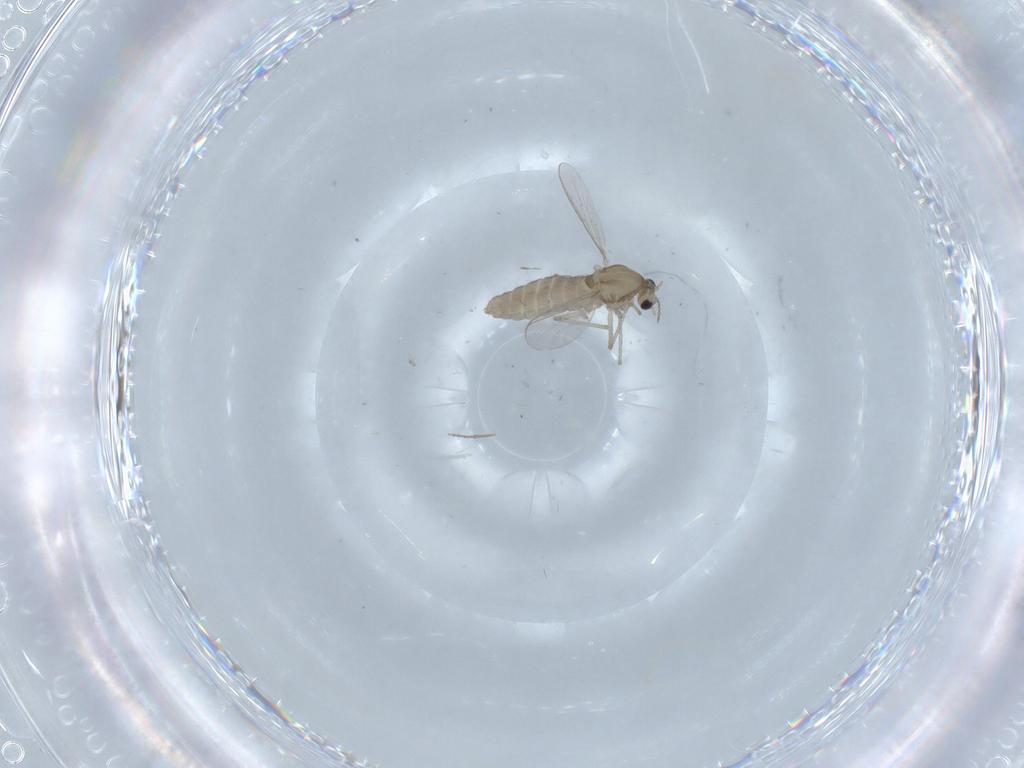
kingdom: Animalia
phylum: Arthropoda
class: Insecta
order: Diptera
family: Chironomidae
